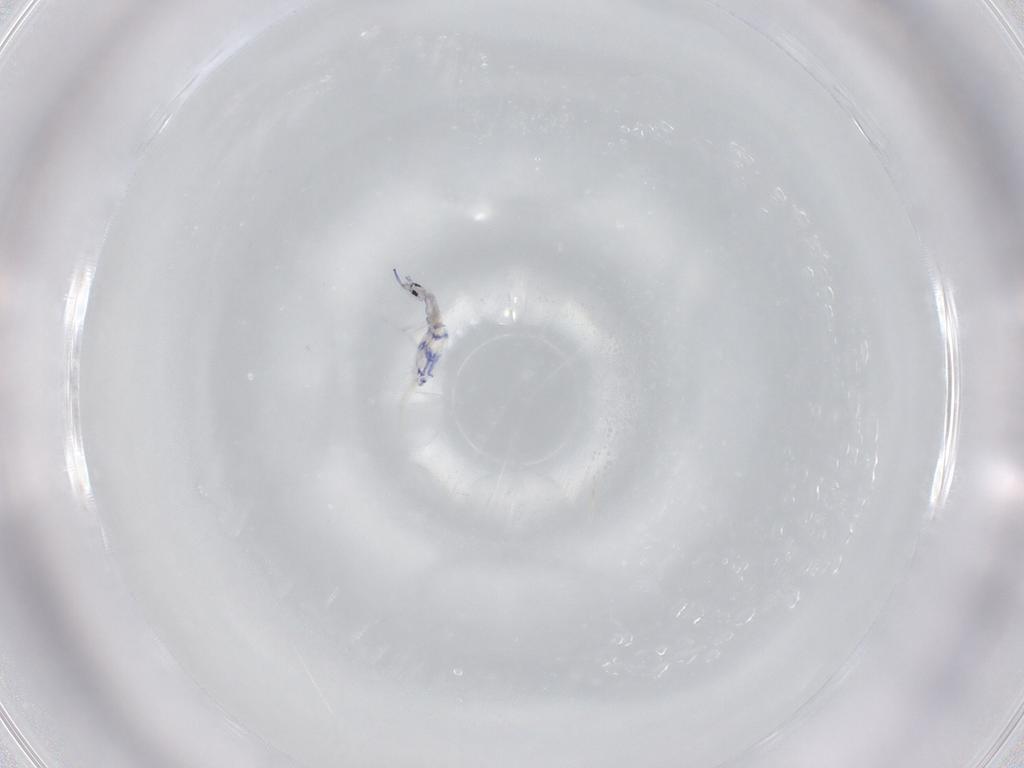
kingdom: Animalia
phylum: Arthropoda
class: Collembola
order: Entomobryomorpha
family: Entomobryidae
